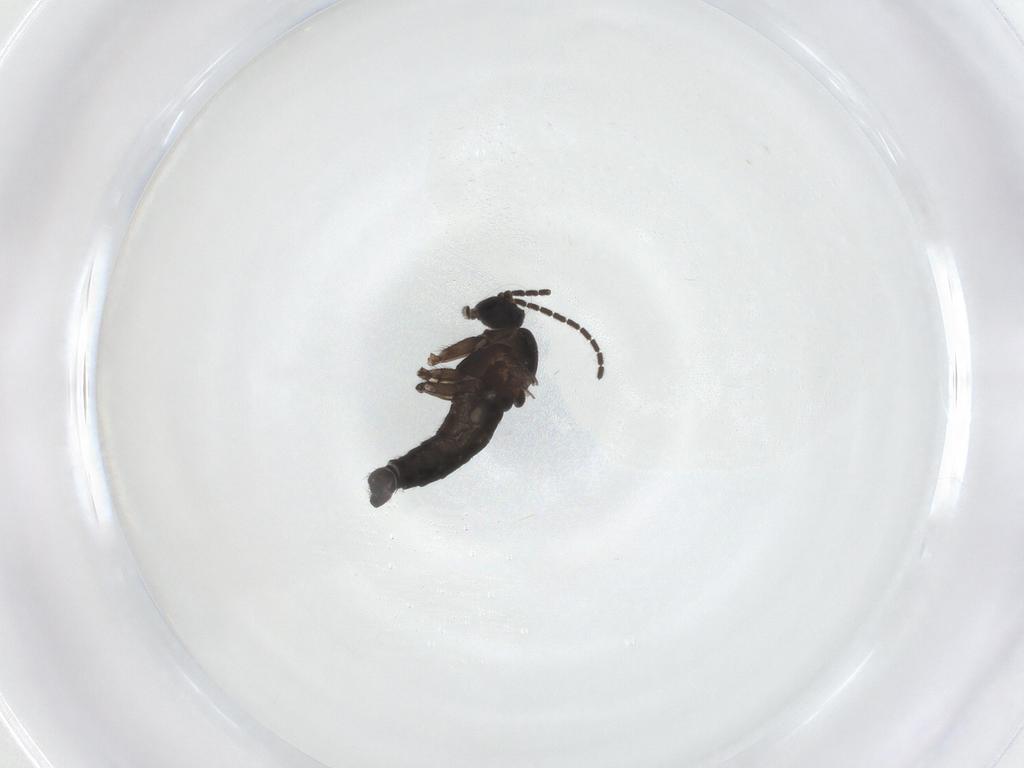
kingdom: Animalia
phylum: Arthropoda
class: Insecta
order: Diptera
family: Sciaridae
